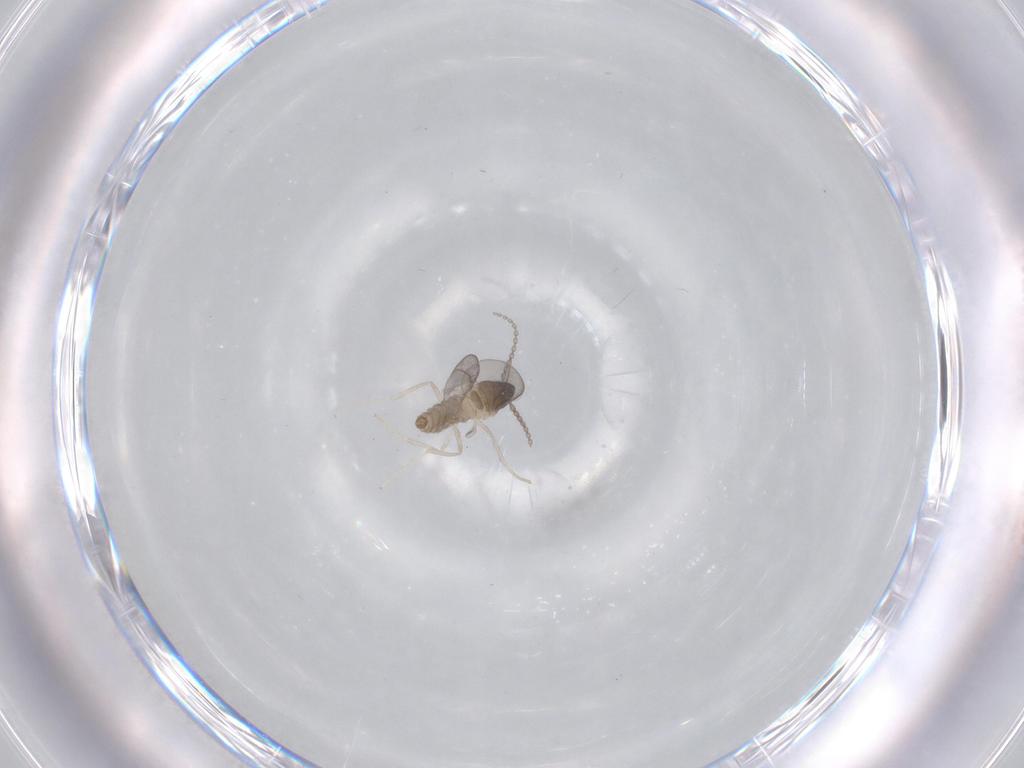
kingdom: Animalia
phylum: Arthropoda
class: Insecta
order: Diptera
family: Cecidomyiidae
